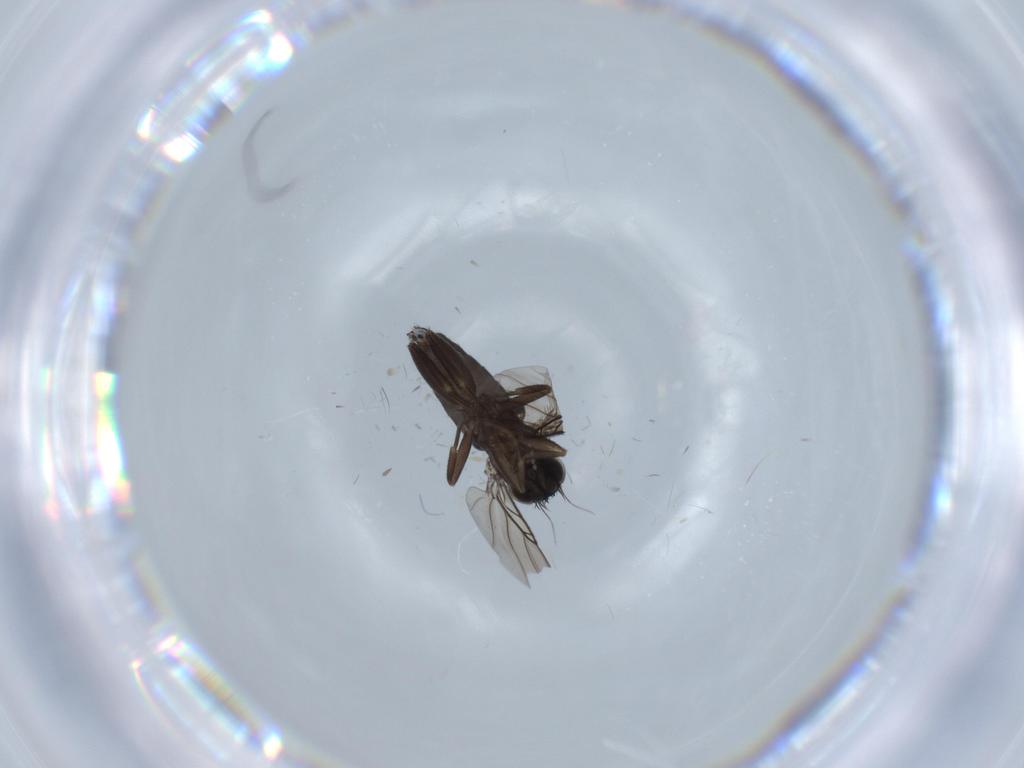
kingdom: Animalia
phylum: Arthropoda
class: Insecta
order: Diptera
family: Phoridae
